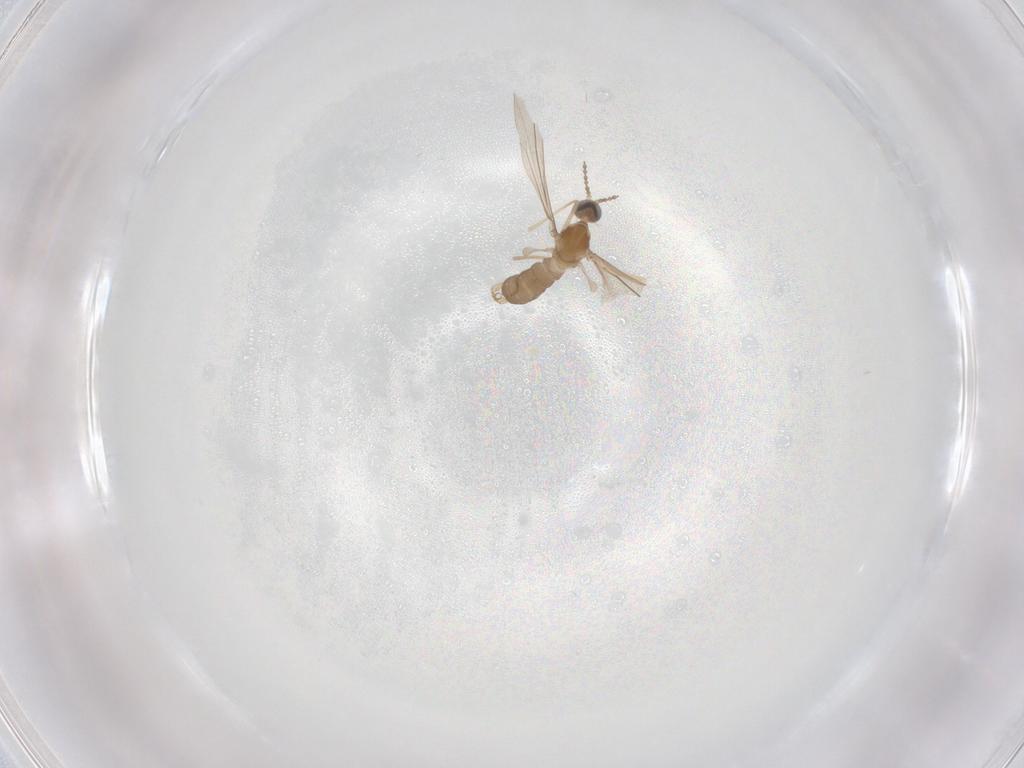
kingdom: Animalia
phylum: Arthropoda
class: Insecta
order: Diptera
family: Cecidomyiidae
